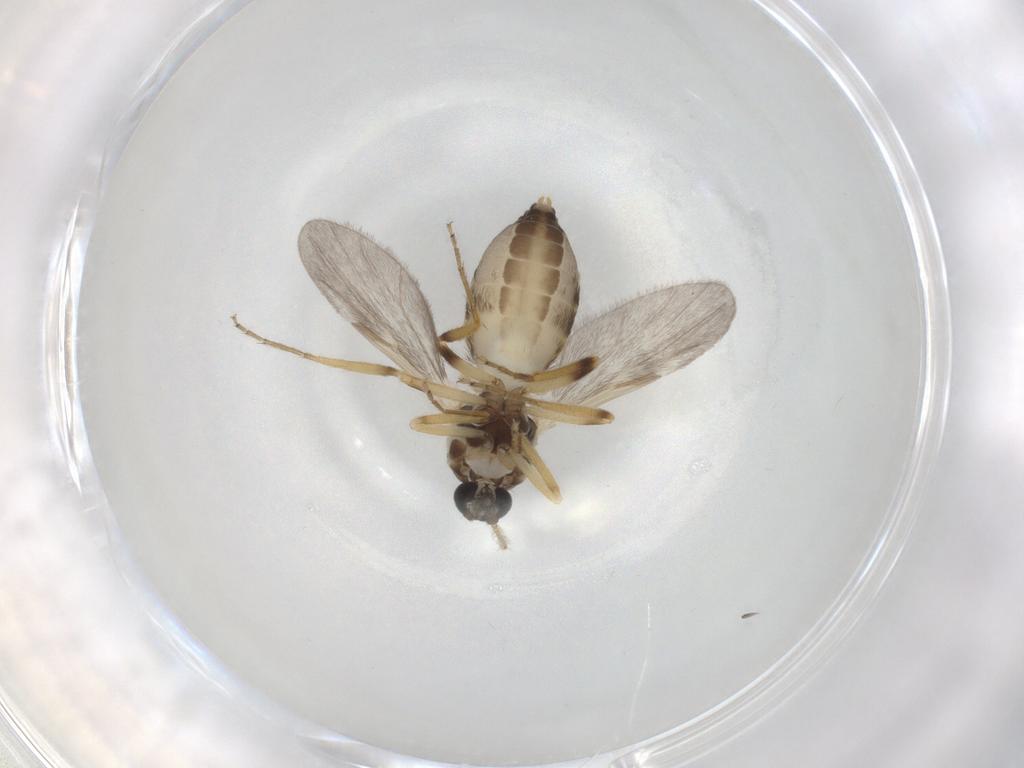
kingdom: Animalia
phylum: Arthropoda
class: Insecta
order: Diptera
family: Ceratopogonidae
